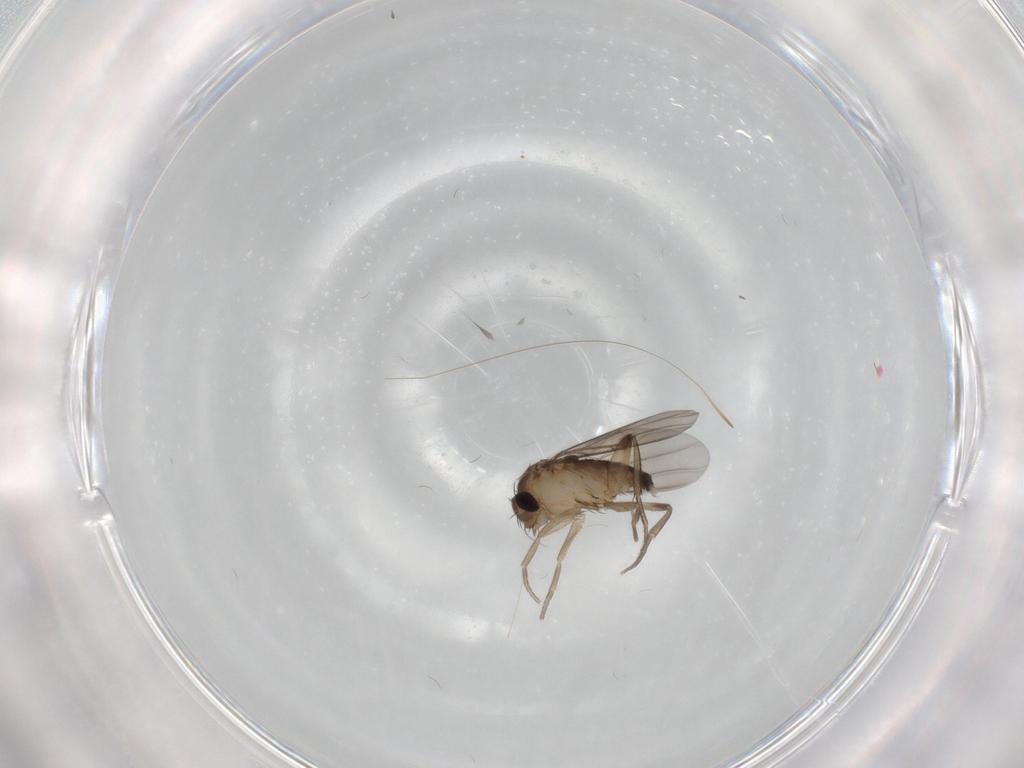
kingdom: Animalia
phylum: Arthropoda
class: Insecta
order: Diptera
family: Phoridae
